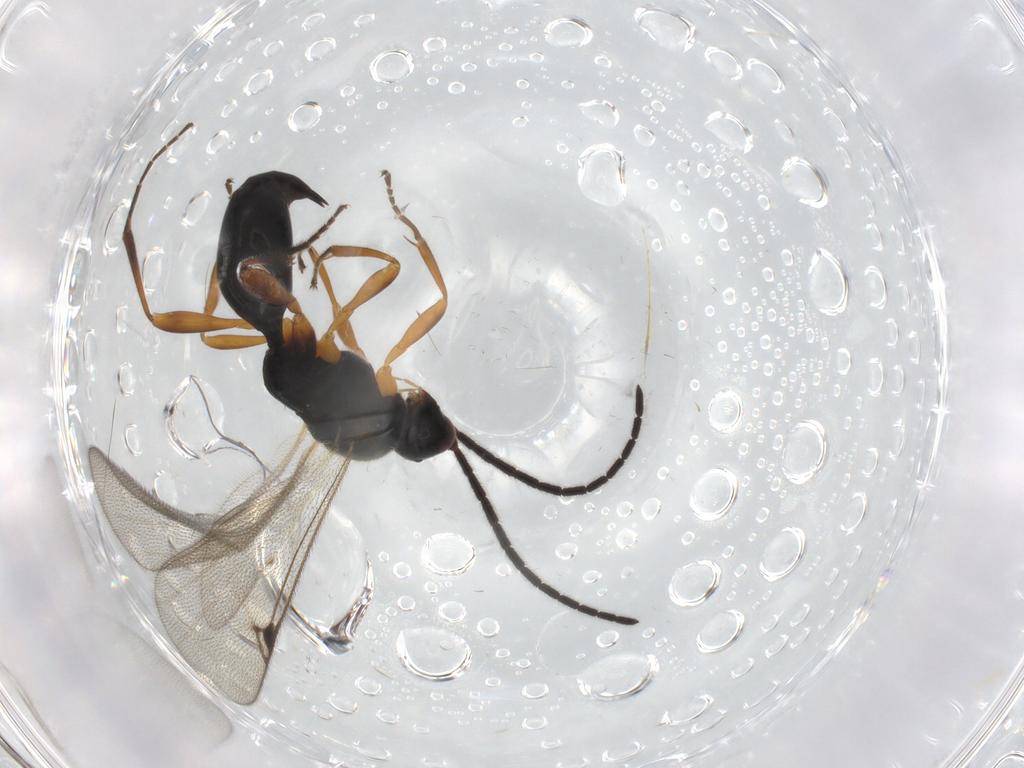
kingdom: Animalia
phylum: Arthropoda
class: Insecta
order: Hymenoptera
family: Proctotrupidae
